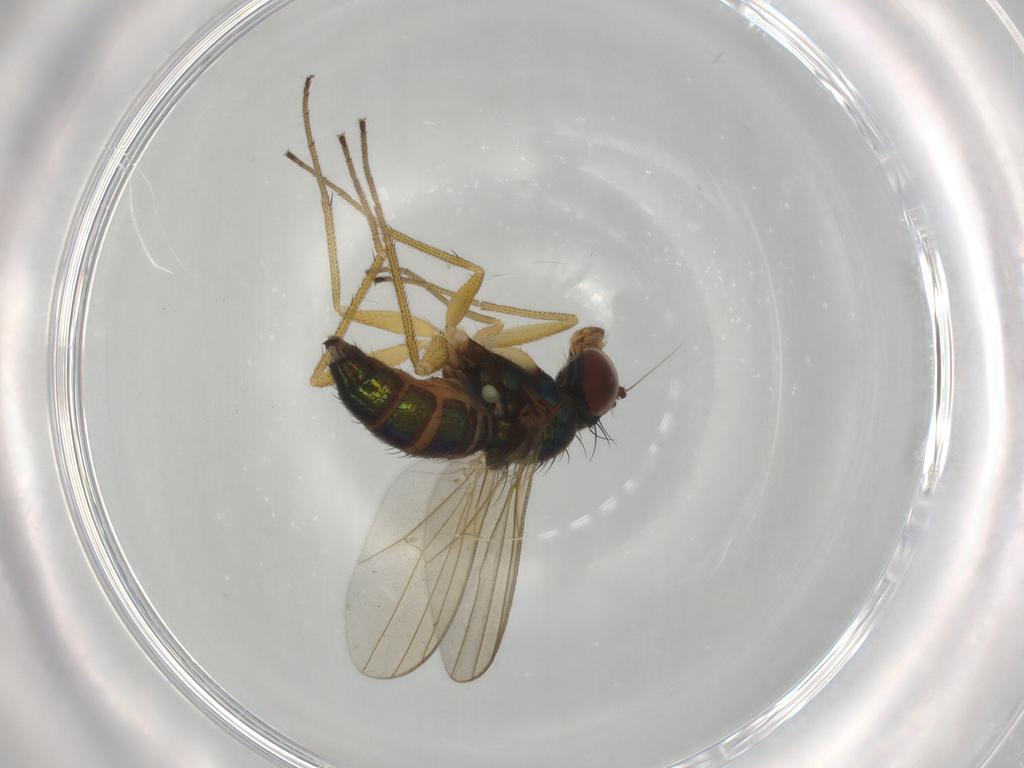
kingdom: Animalia
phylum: Arthropoda
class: Insecta
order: Diptera
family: Dolichopodidae
